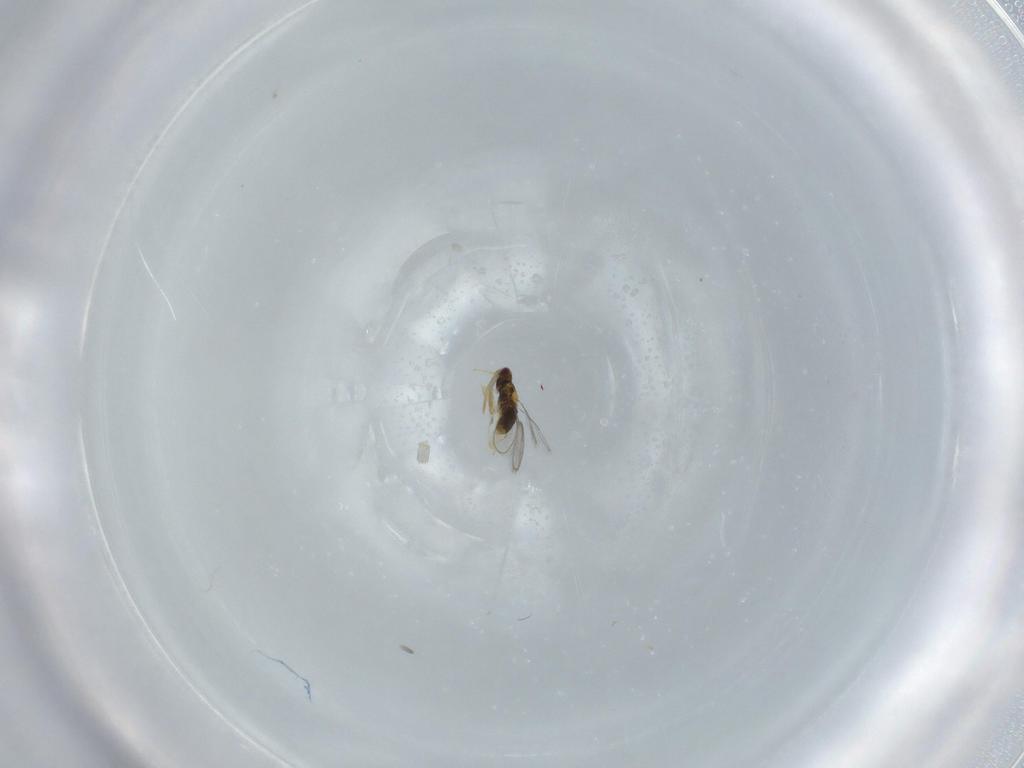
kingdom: Animalia
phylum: Arthropoda
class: Insecta
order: Hymenoptera
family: Aphelinidae
